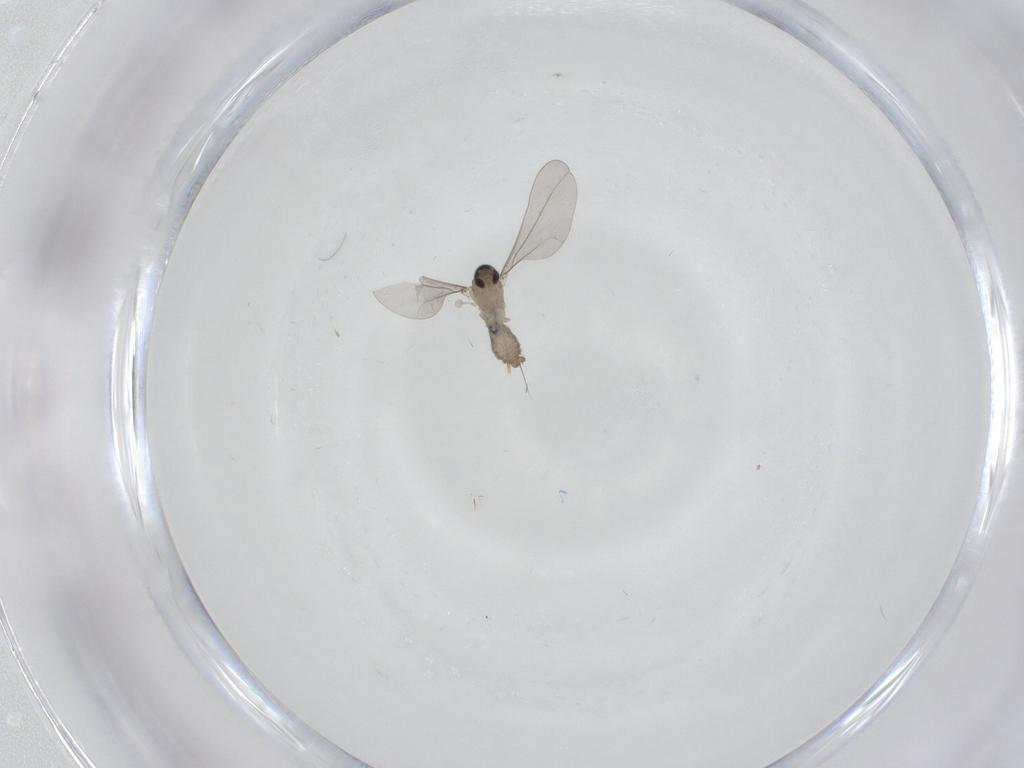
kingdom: Animalia
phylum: Arthropoda
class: Insecta
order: Diptera
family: Cecidomyiidae
